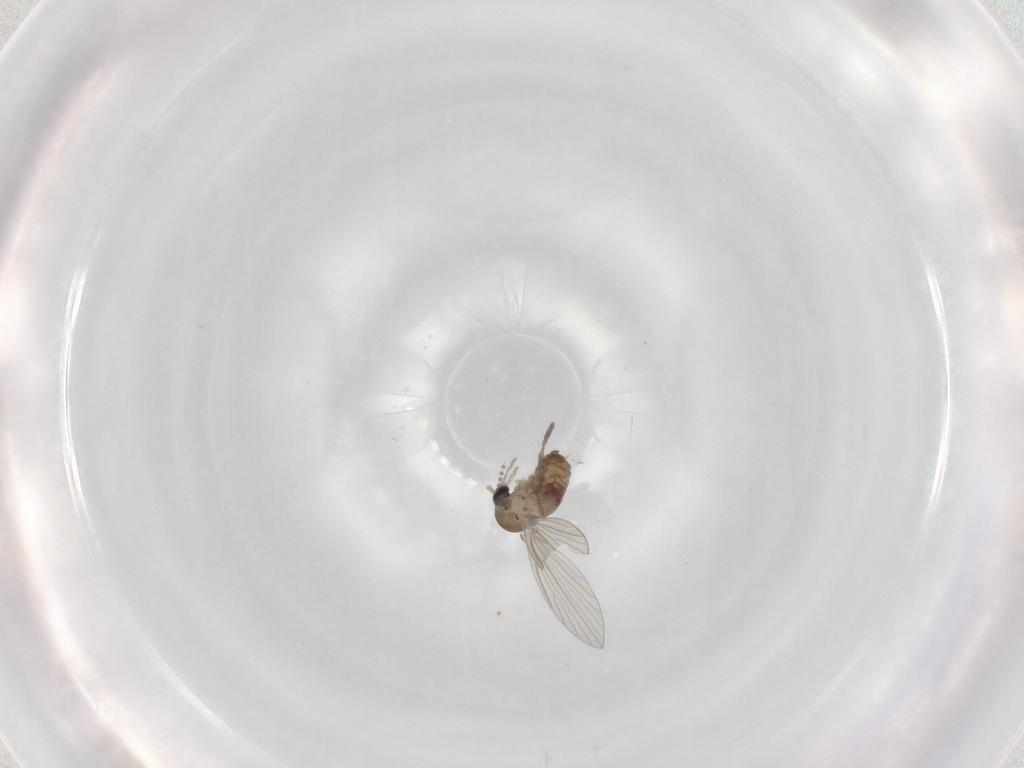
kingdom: Animalia
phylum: Arthropoda
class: Insecta
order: Diptera
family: Psychodidae
